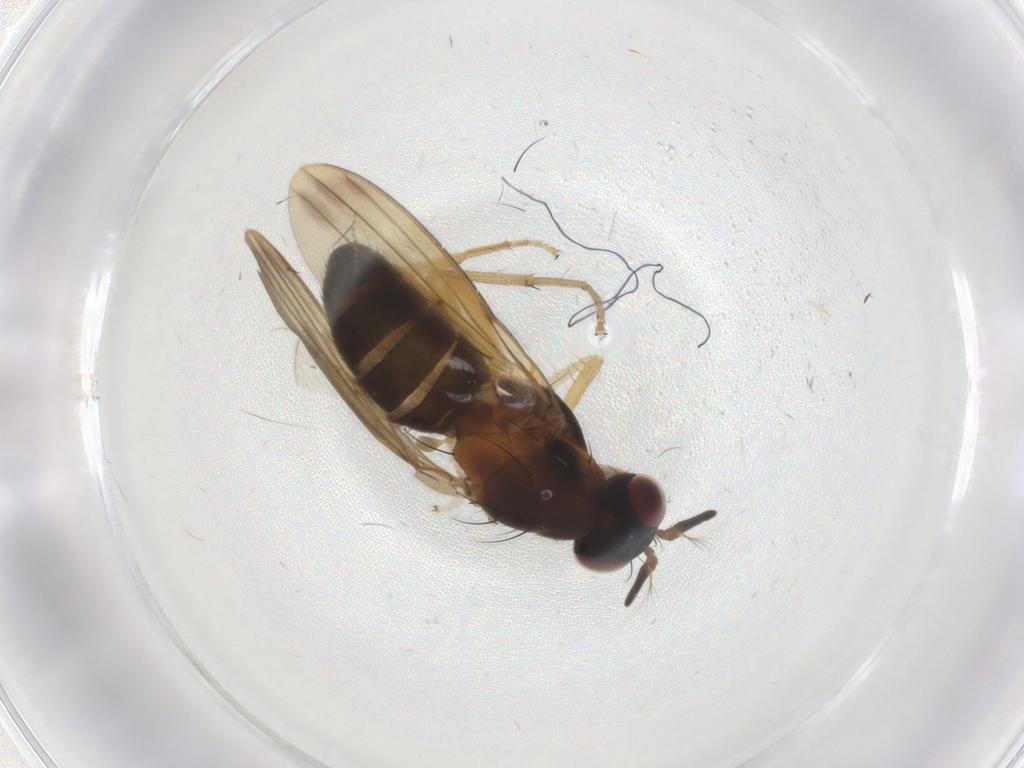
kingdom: Animalia
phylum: Arthropoda
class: Insecta
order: Diptera
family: Cecidomyiidae
